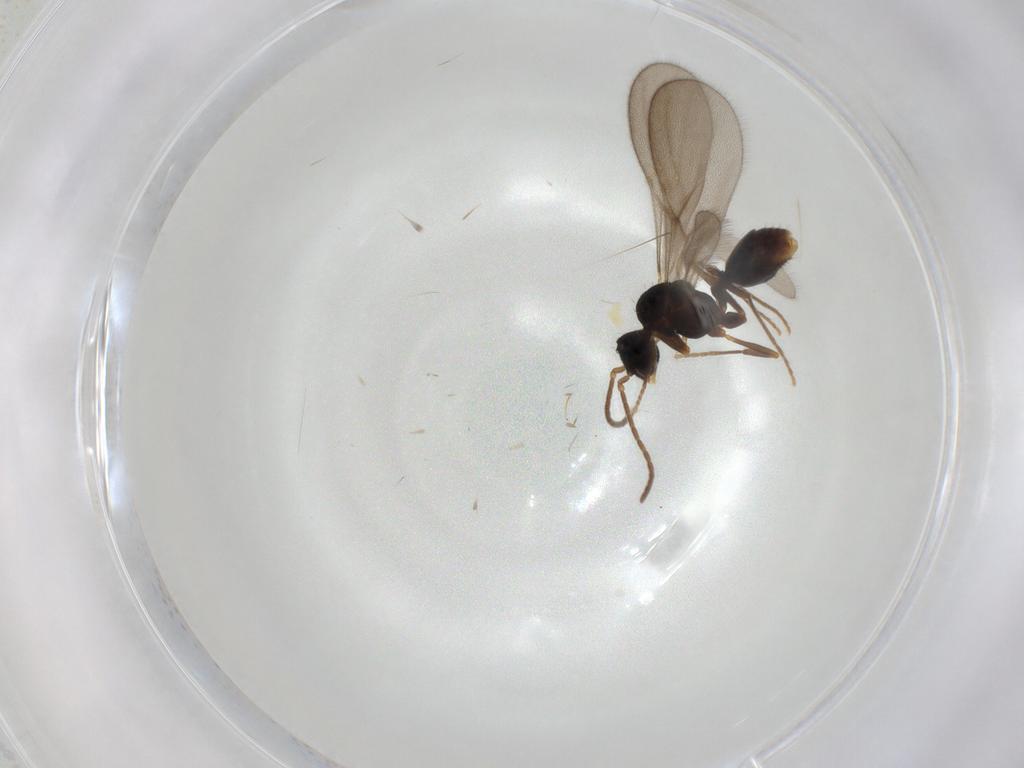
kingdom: Animalia
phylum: Arthropoda
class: Insecta
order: Hymenoptera
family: Formicidae
